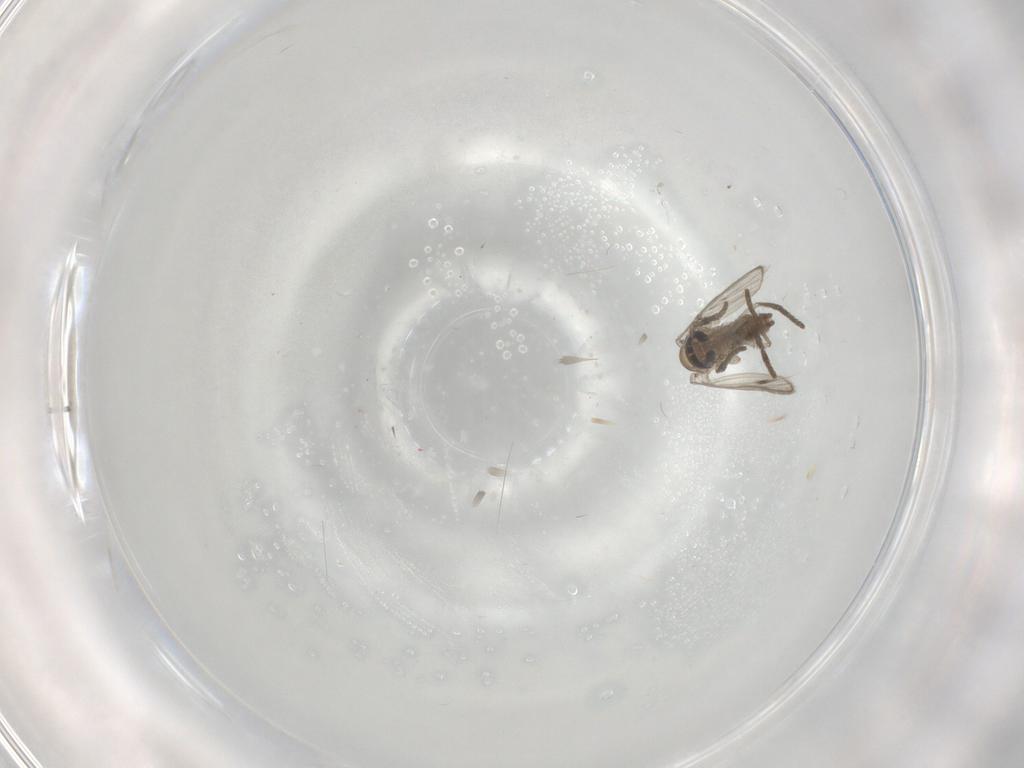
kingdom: Animalia
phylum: Arthropoda
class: Insecta
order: Diptera
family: Psychodidae
